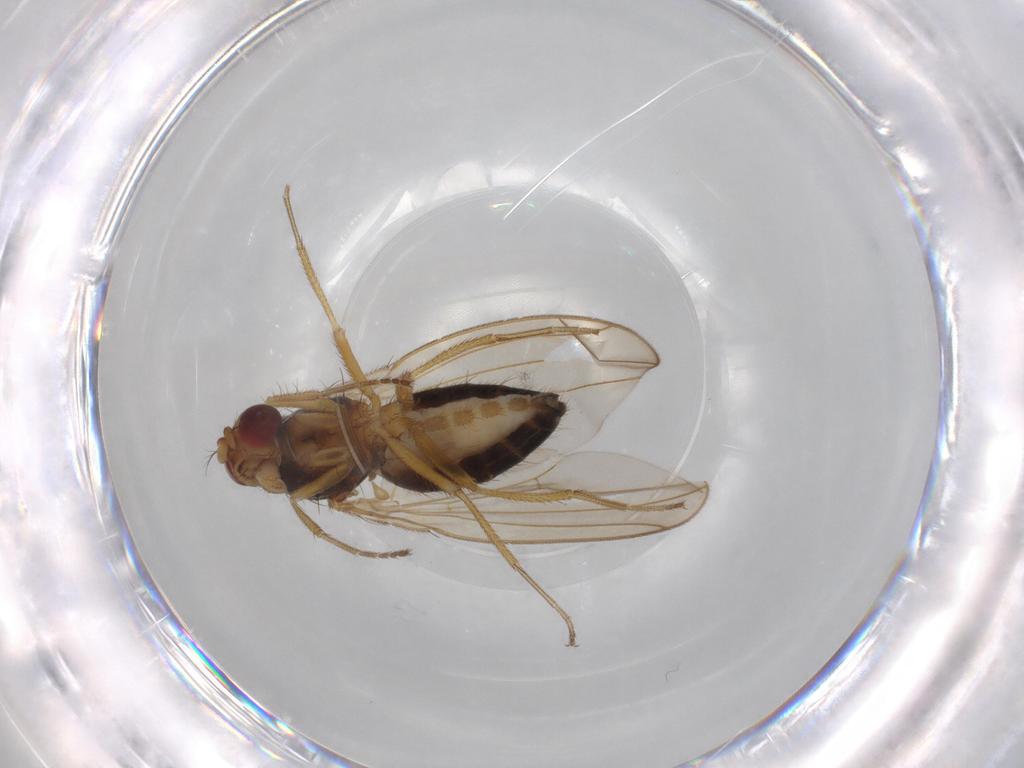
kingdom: Animalia
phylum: Arthropoda
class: Insecta
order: Diptera
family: Drosophilidae
